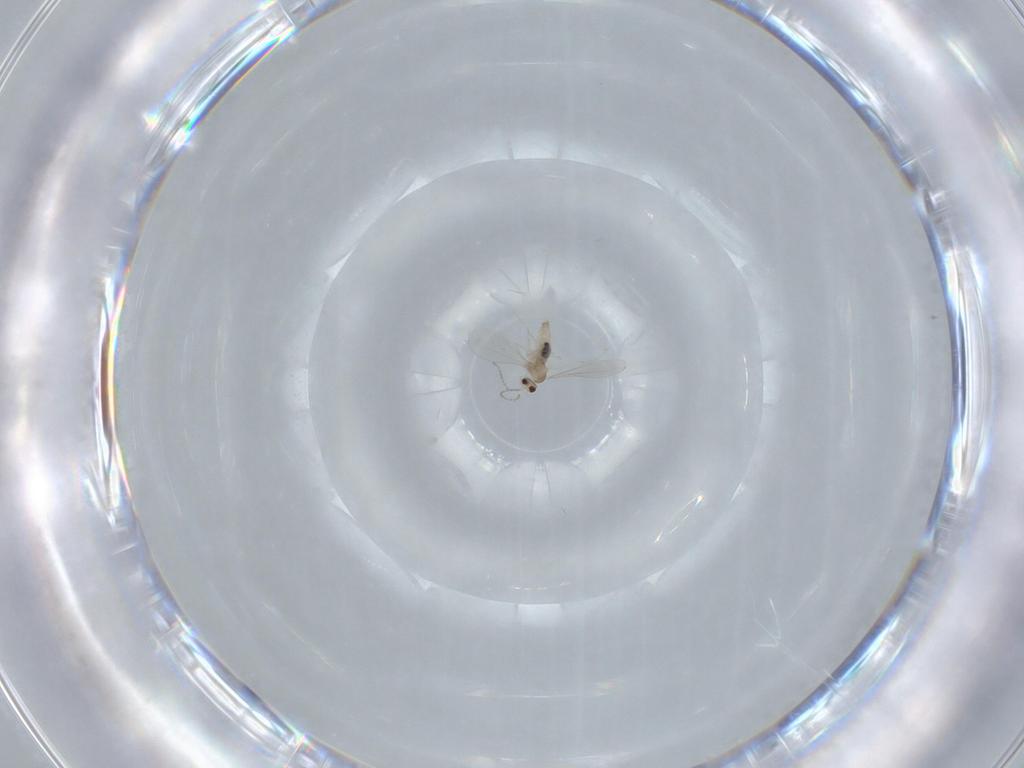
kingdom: Animalia
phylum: Arthropoda
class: Insecta
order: Diptera
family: Cecidomyiidae
